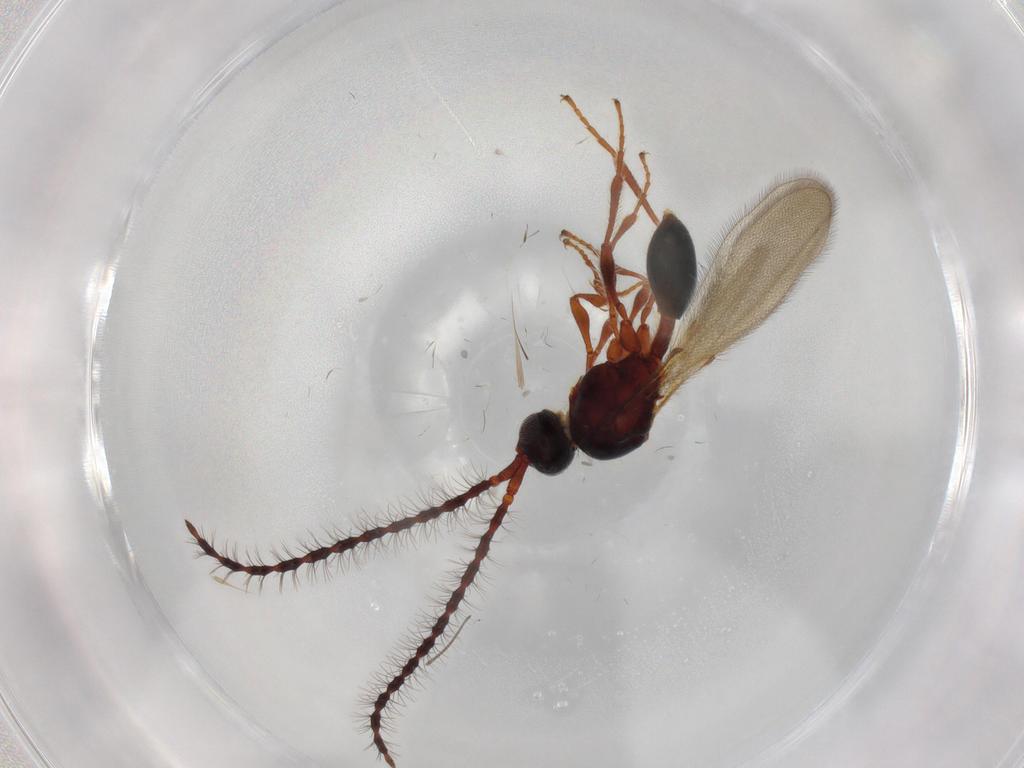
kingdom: Animalia
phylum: Arthropoda
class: Insecta
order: Hymenoptera
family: Diapriidae
